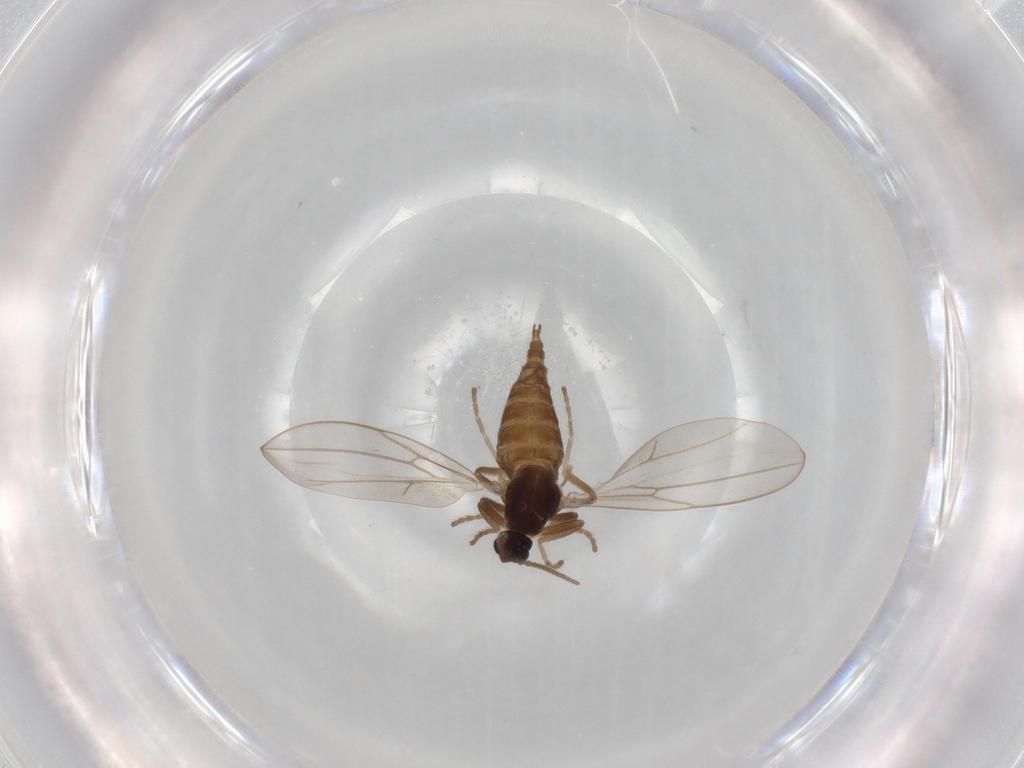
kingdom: Animalia
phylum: Arthropoda
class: Insecta
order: Diptera
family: Cecidomyiidae
